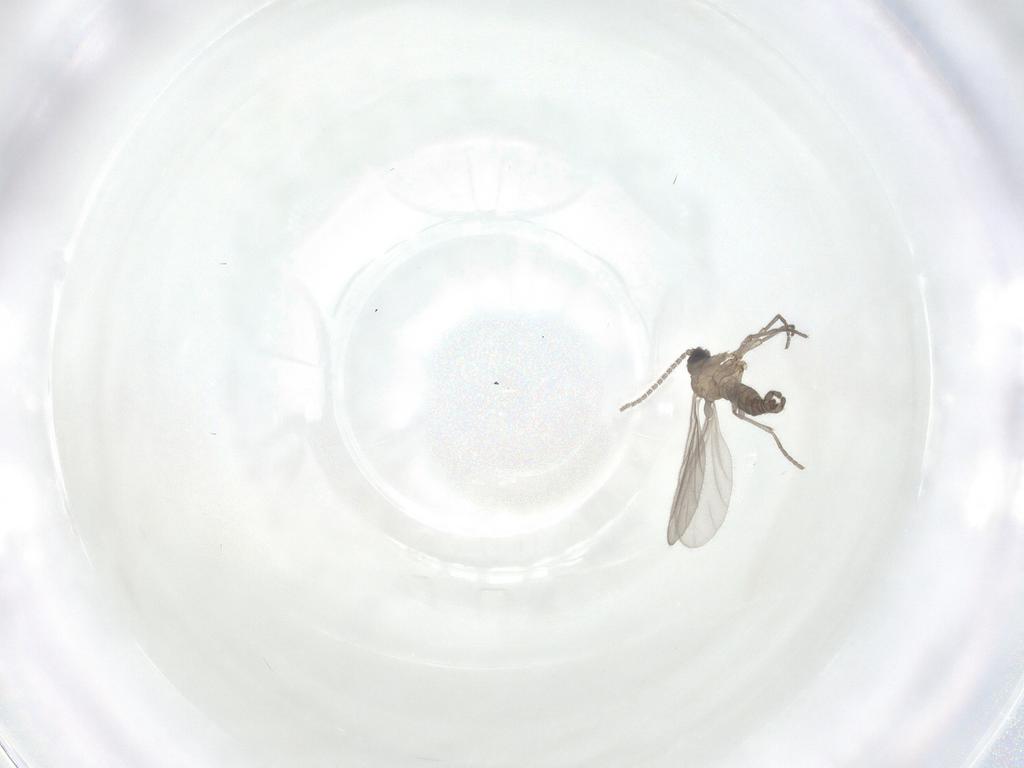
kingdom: Animalia
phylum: Arthropoda
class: Insecta
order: Diptera
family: Sciaridae
